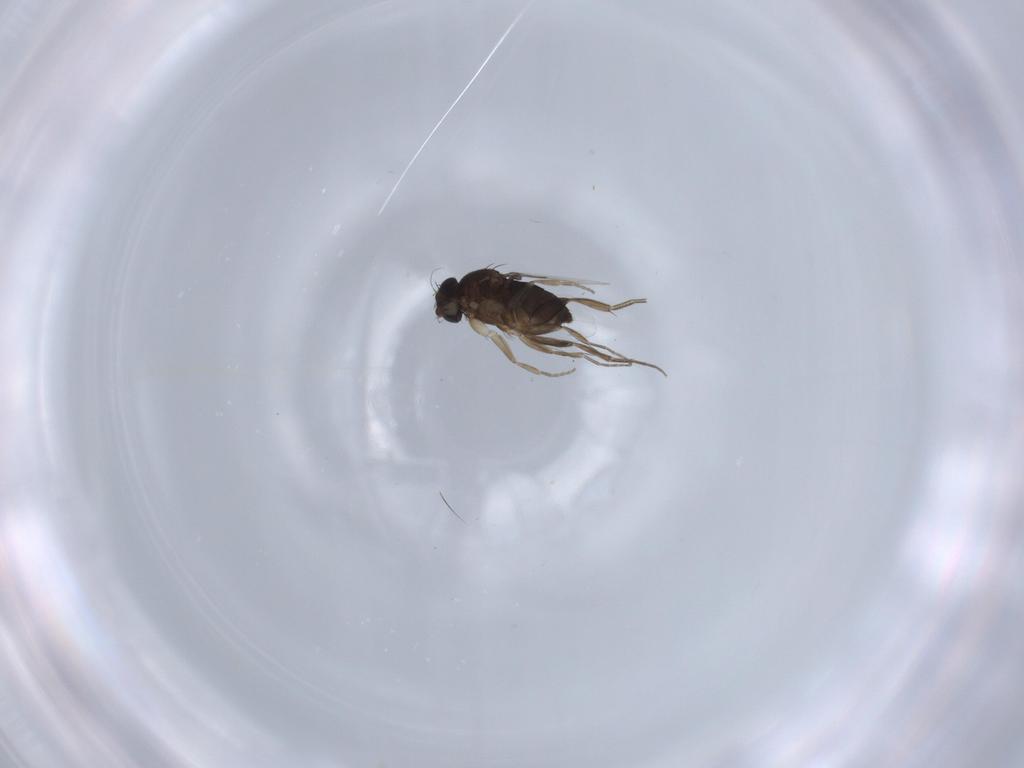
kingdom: Animalia
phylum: Arthropoda
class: Insecta
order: Diptera
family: Phoridae
